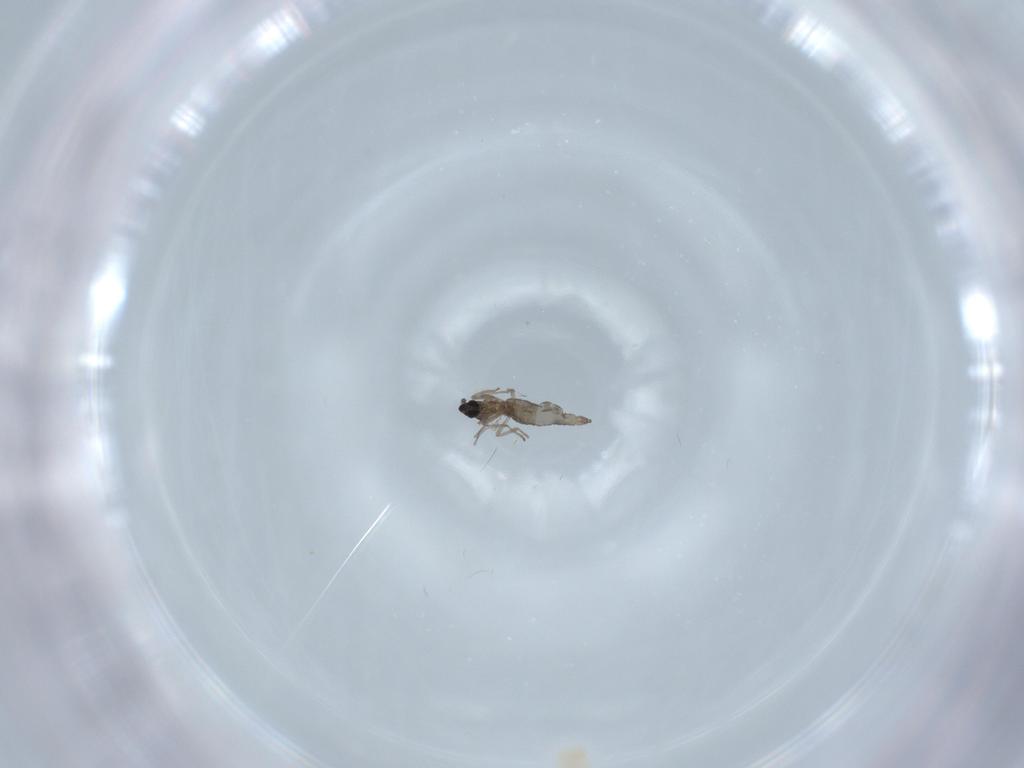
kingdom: Animalia
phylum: Arthropoda
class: Insecta
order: Diptera
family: Cecidomyiidae
